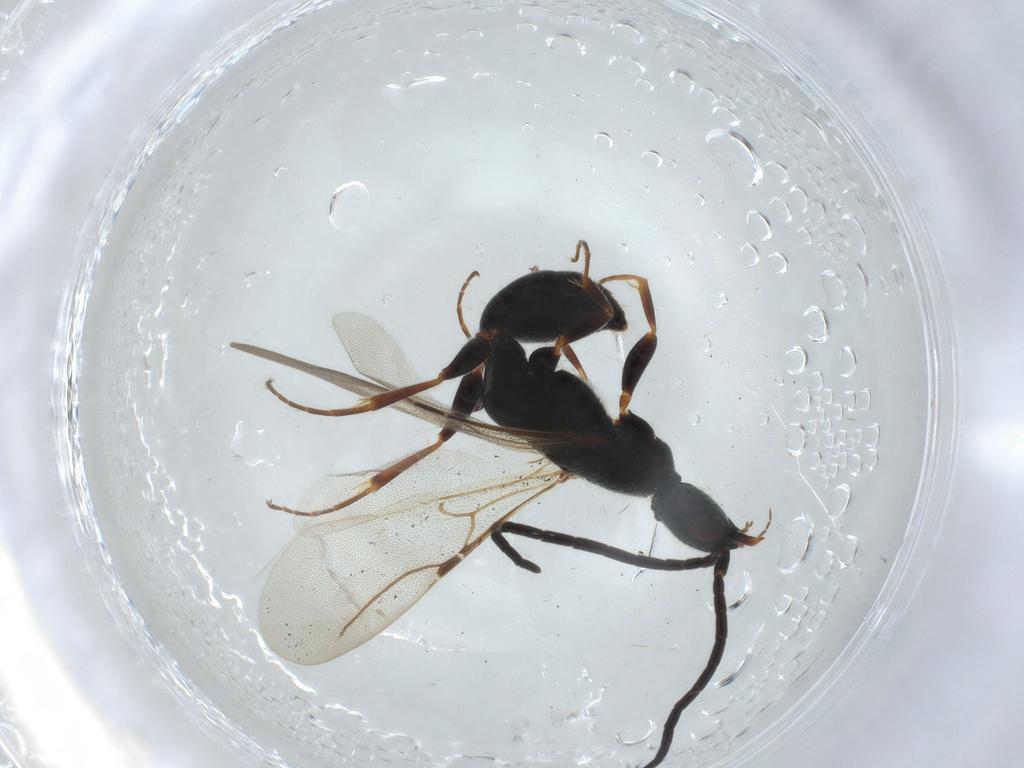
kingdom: Animalia
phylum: Arthropoda
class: Insecta
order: Hymenoptera
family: Bethylidae
